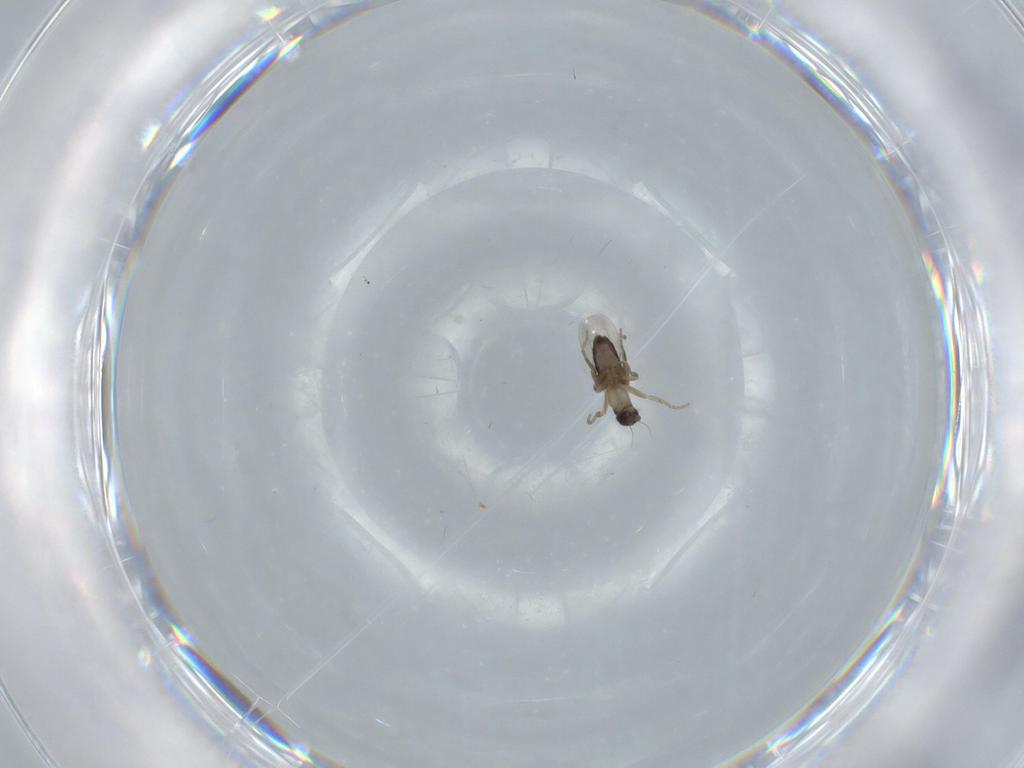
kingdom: Animalia
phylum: Arthropoda
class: Insecta
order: Diptera
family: Phoridae
